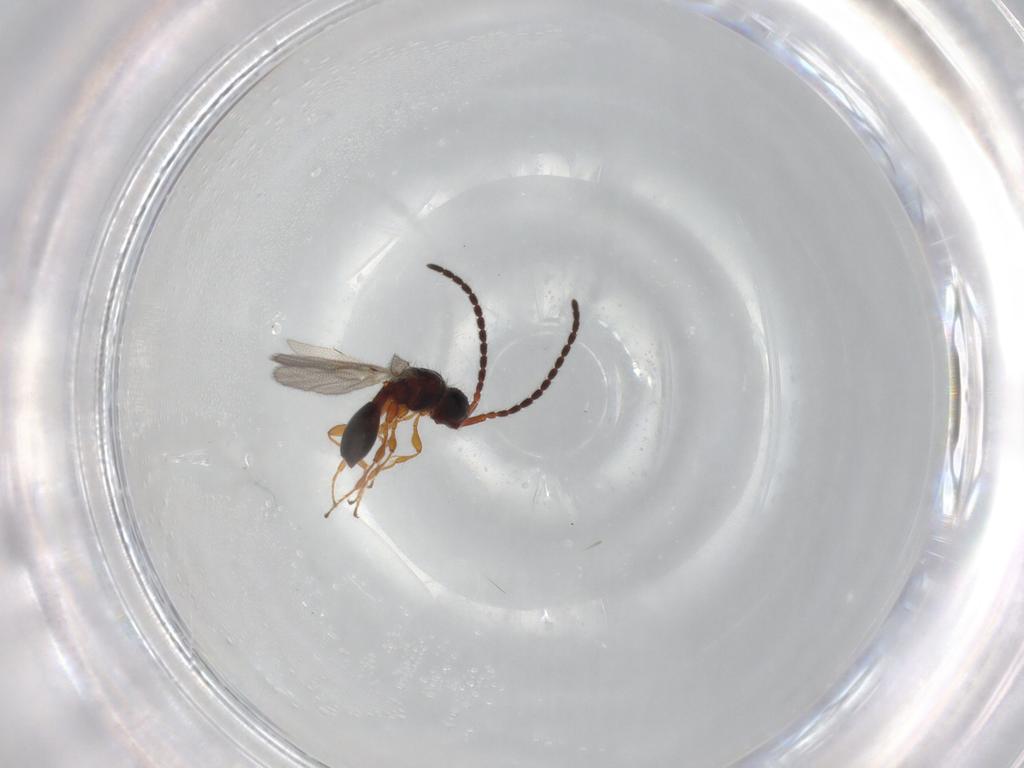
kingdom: Animalia
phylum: Arthropoda
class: Insecta
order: Hymenoptera
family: Diapriidae
